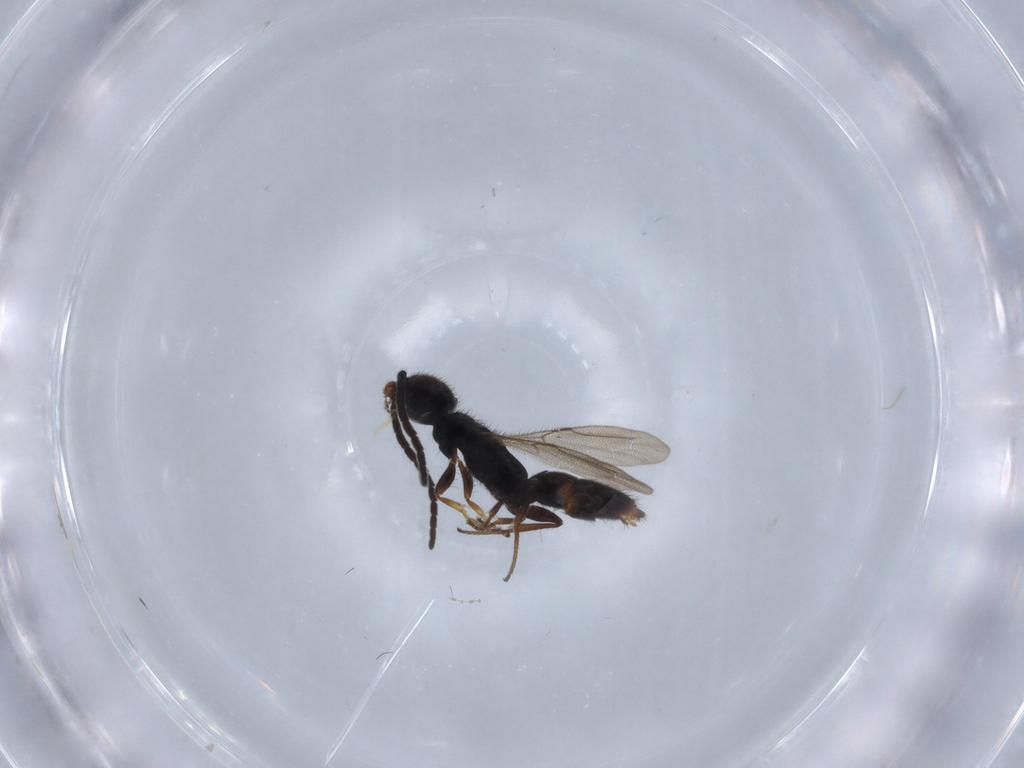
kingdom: Animalia
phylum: Arthropoda
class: Insecta
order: Hymenoptera
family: Bethylidae
